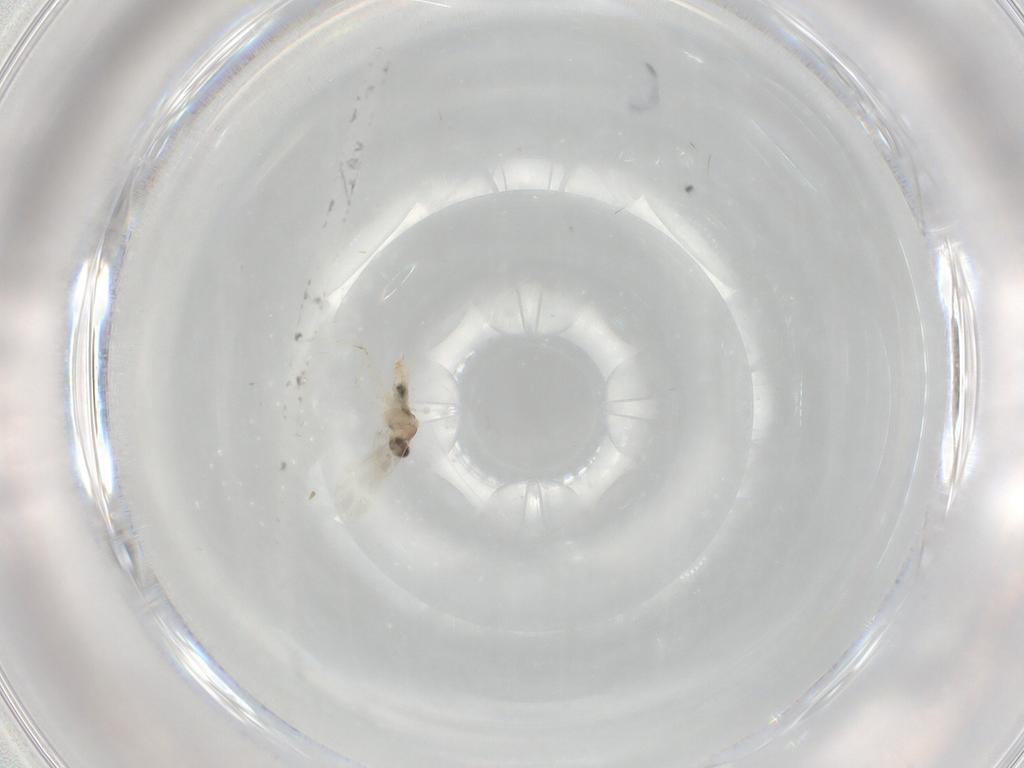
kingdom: Animalia
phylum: Arthropoda
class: Insecta
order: Diptera
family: Cecidomyiidae
